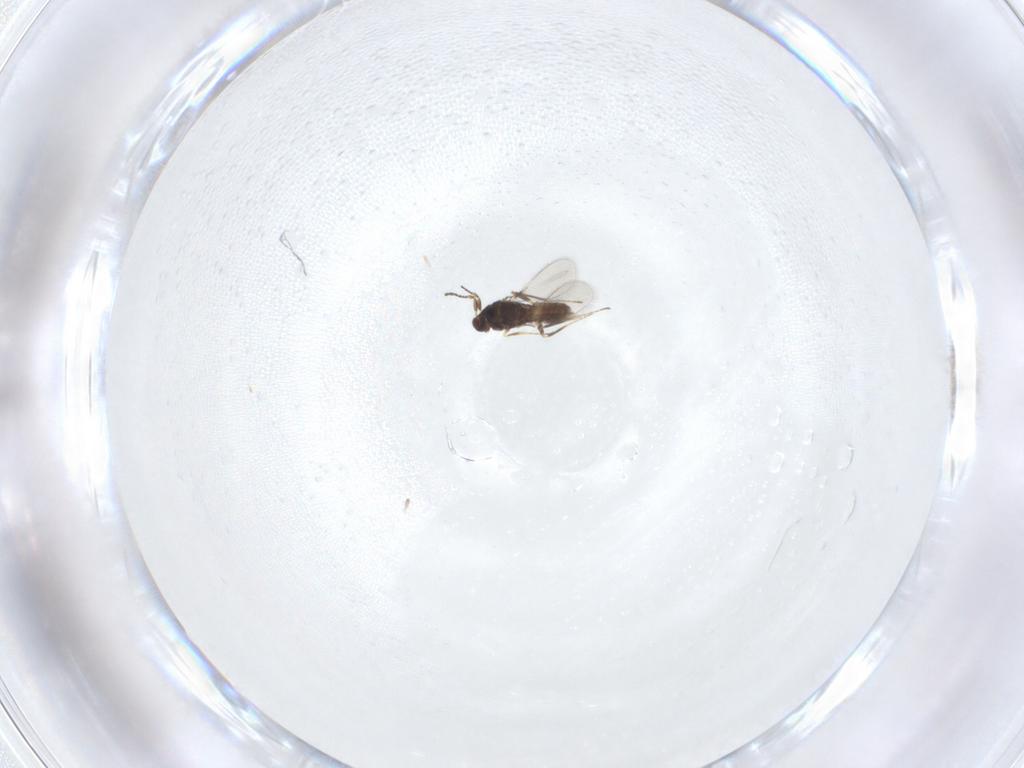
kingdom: Animalia
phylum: Arthropoda
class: Insecta
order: Hymenoptera
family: Mymaridae
